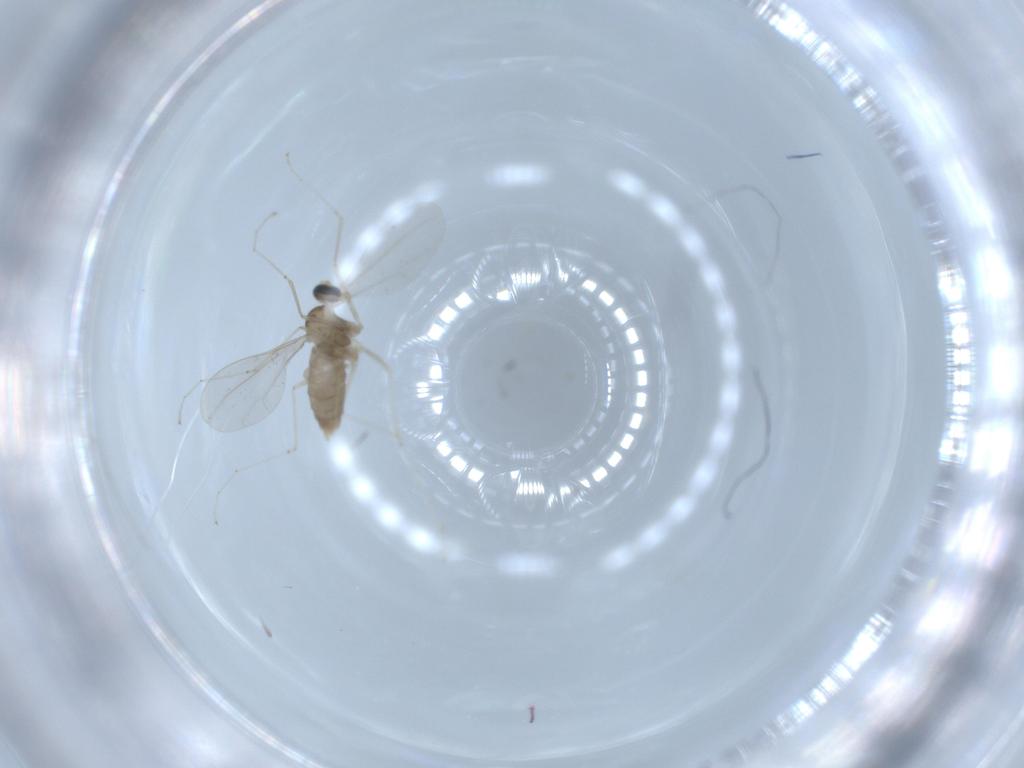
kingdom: Animalia
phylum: Arthropoda
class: Insecta
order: Diptera
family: Cecidomyiidae
